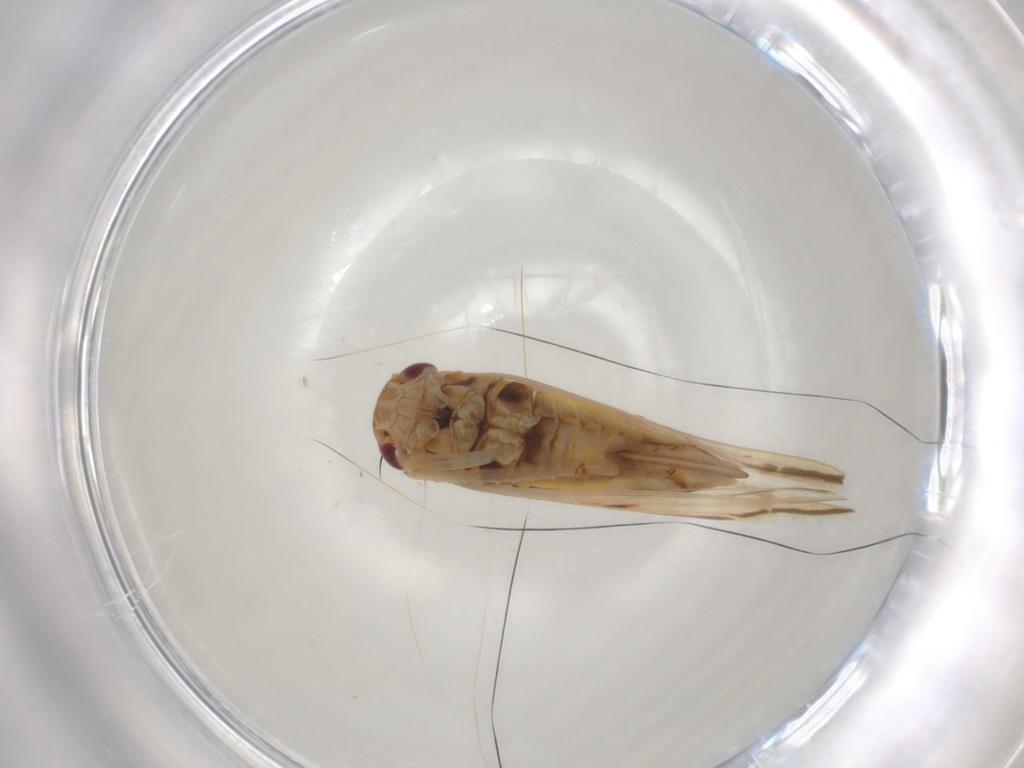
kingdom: Animalia
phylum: Arthropoda
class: Insecta
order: Hemiptera
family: Cicadellidae
